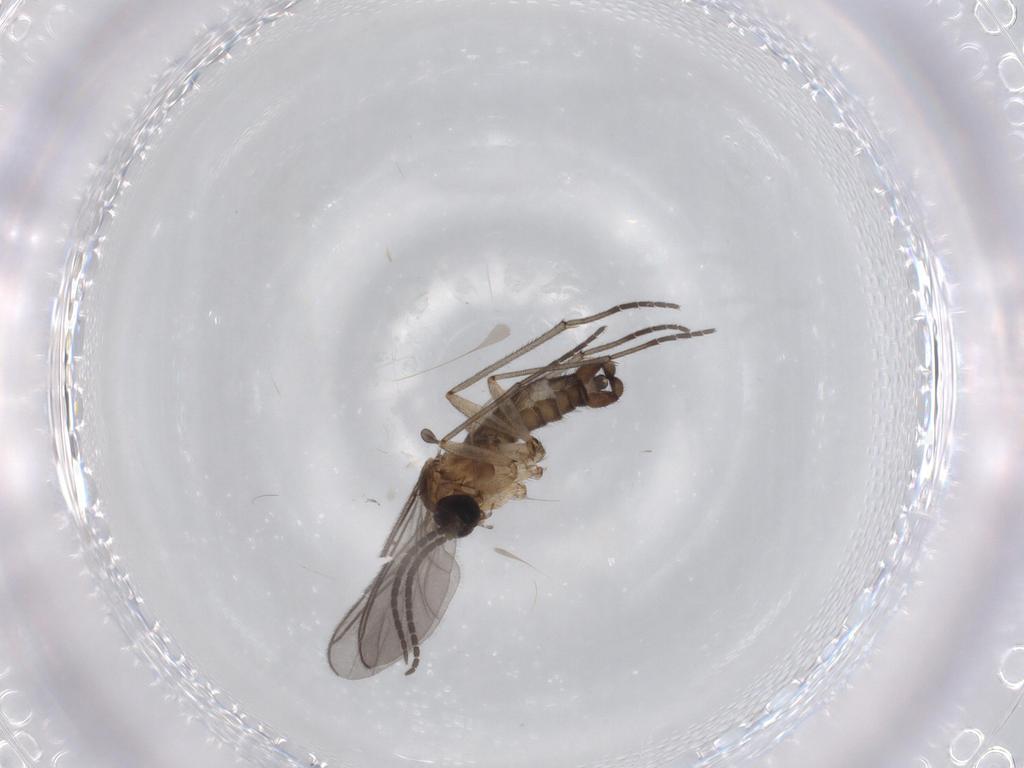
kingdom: Animalia
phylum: Arthropoda
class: Insecta
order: Diptera
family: Sciaridae
